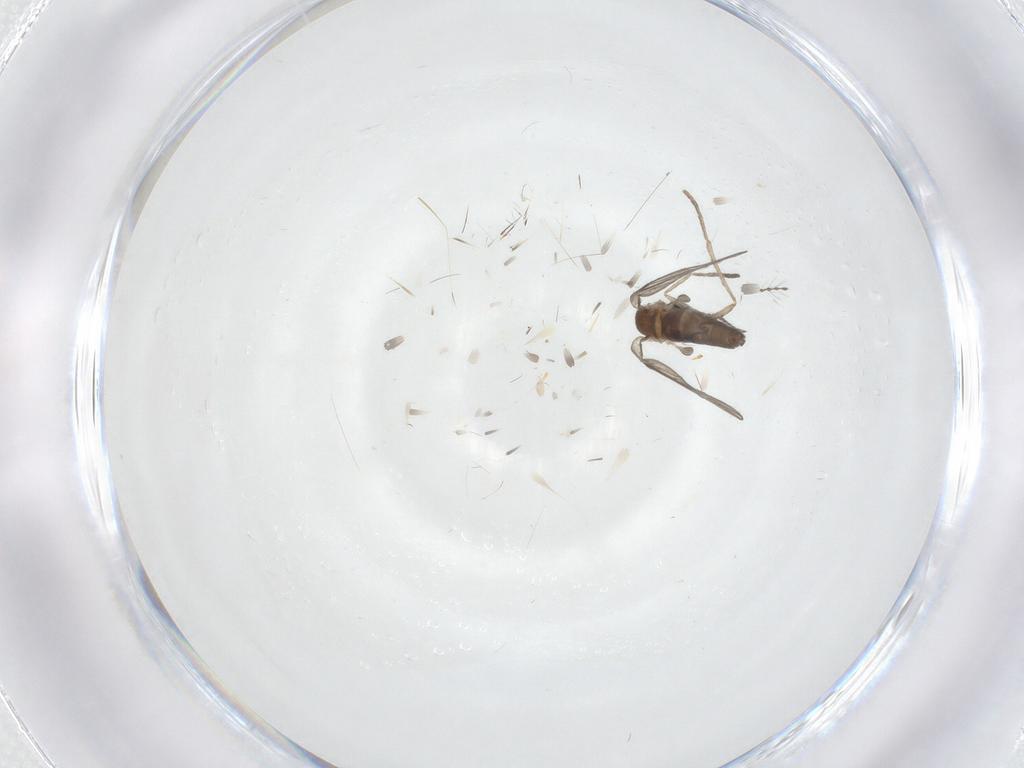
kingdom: Animalia
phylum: Arthropoda
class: Insecta
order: Diptera
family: Chironomidae
